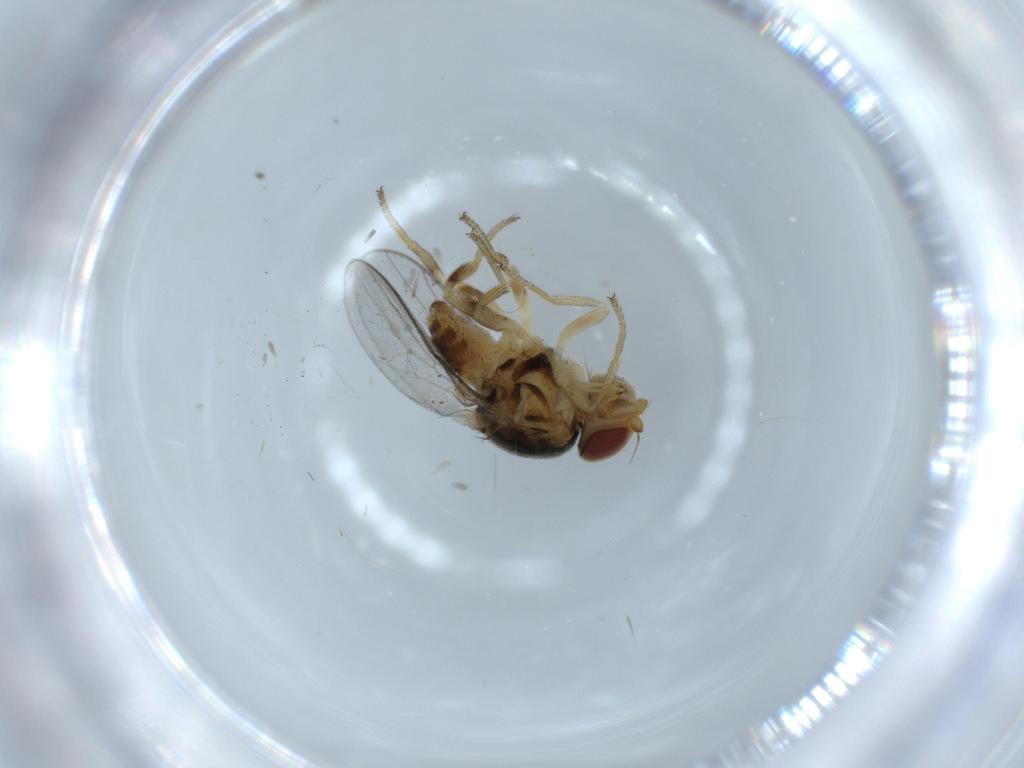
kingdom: Animalia
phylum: Arthropoda
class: Insecta
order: Diptera
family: Chloropidae
